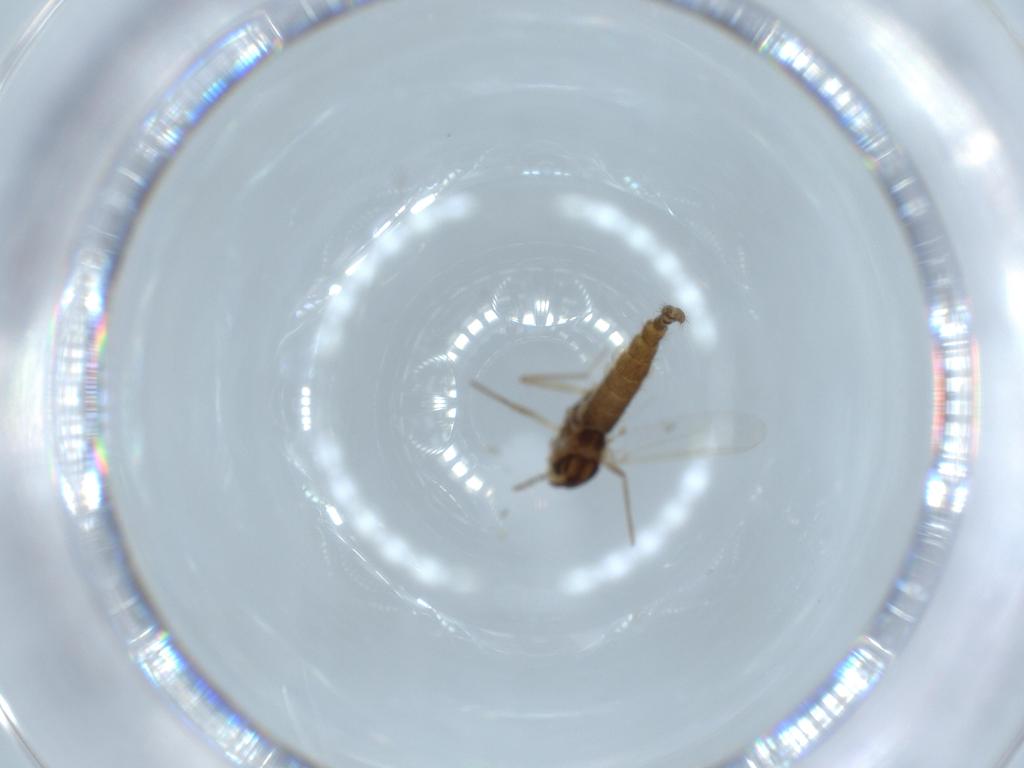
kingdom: Animalia
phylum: Arthropoda
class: Insecta
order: Diptera
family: Chironomidae
